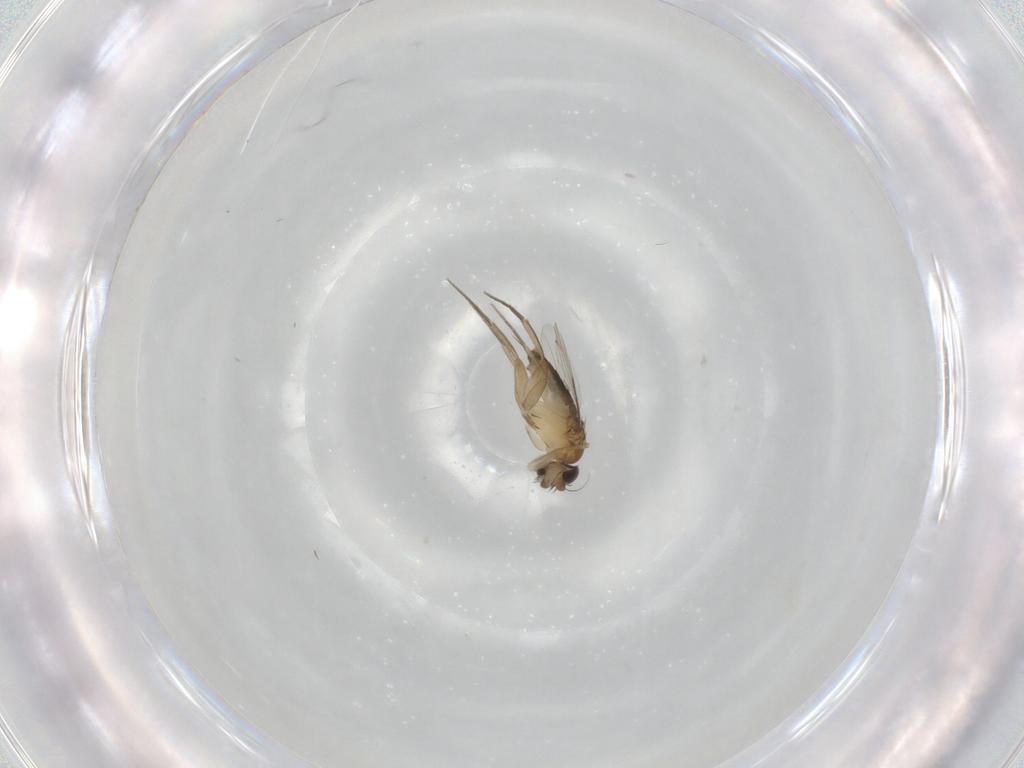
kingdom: Animalia
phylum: Arthropoda
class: Insecta
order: Diptera
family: Phoridae
